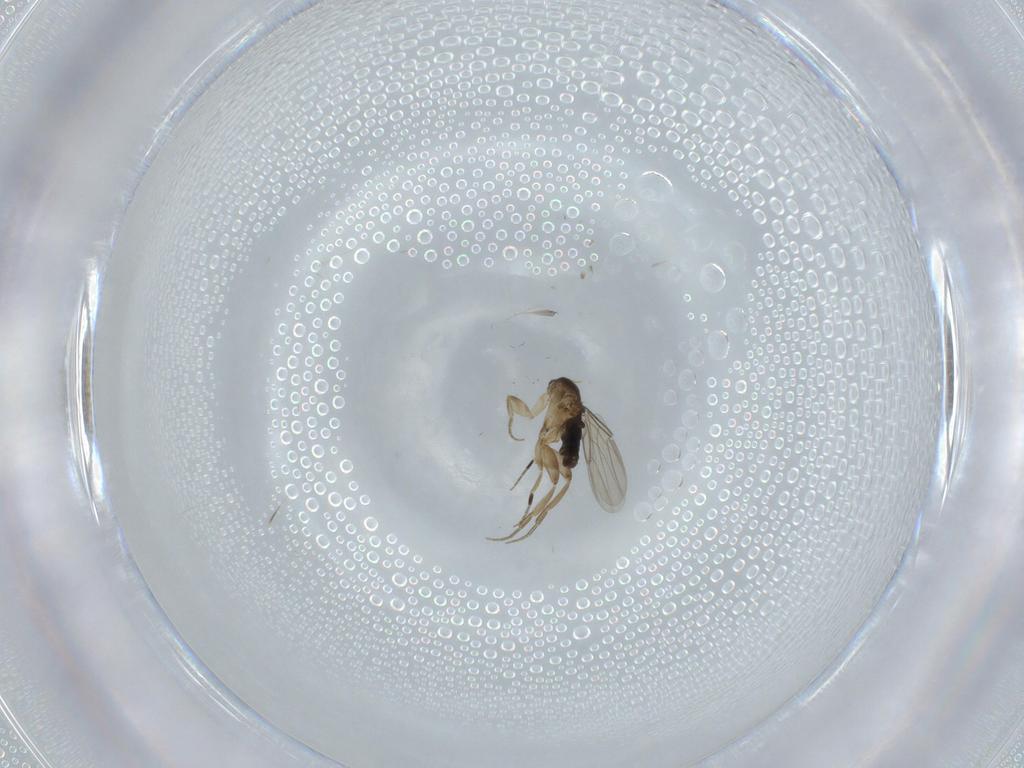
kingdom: Animalia
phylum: Arthropoda
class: Insecta
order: Diptera
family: Phoridae
